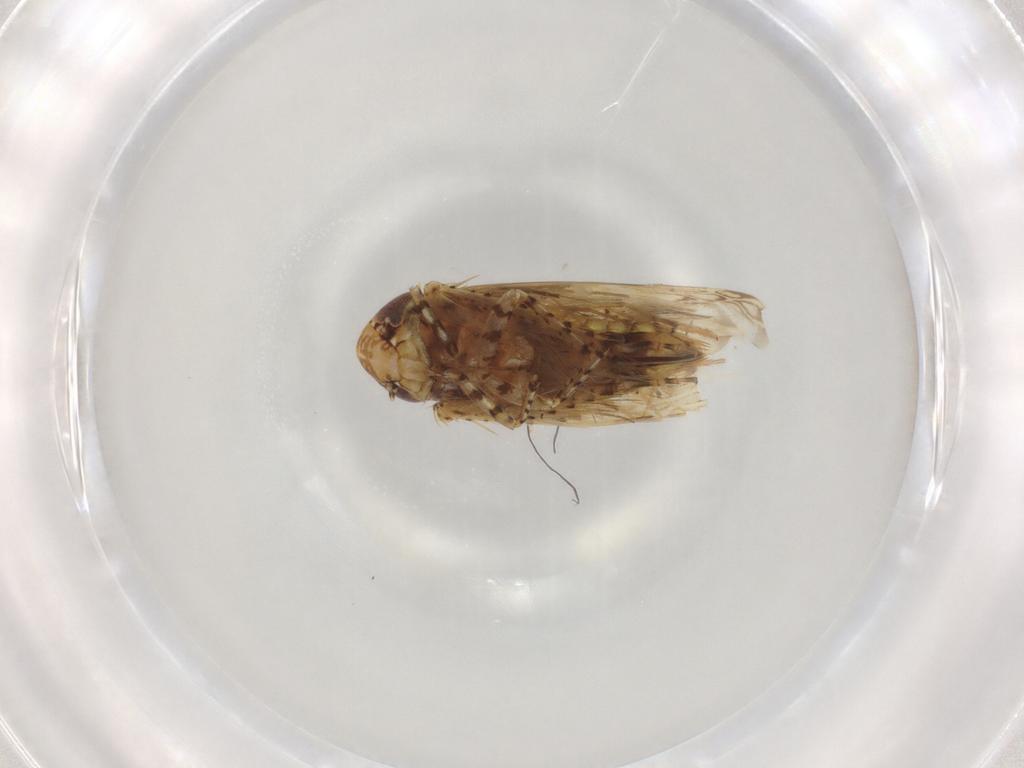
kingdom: Animalia
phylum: Arthropoda
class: Insecta
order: Hemiptera
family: Cicadellidae
